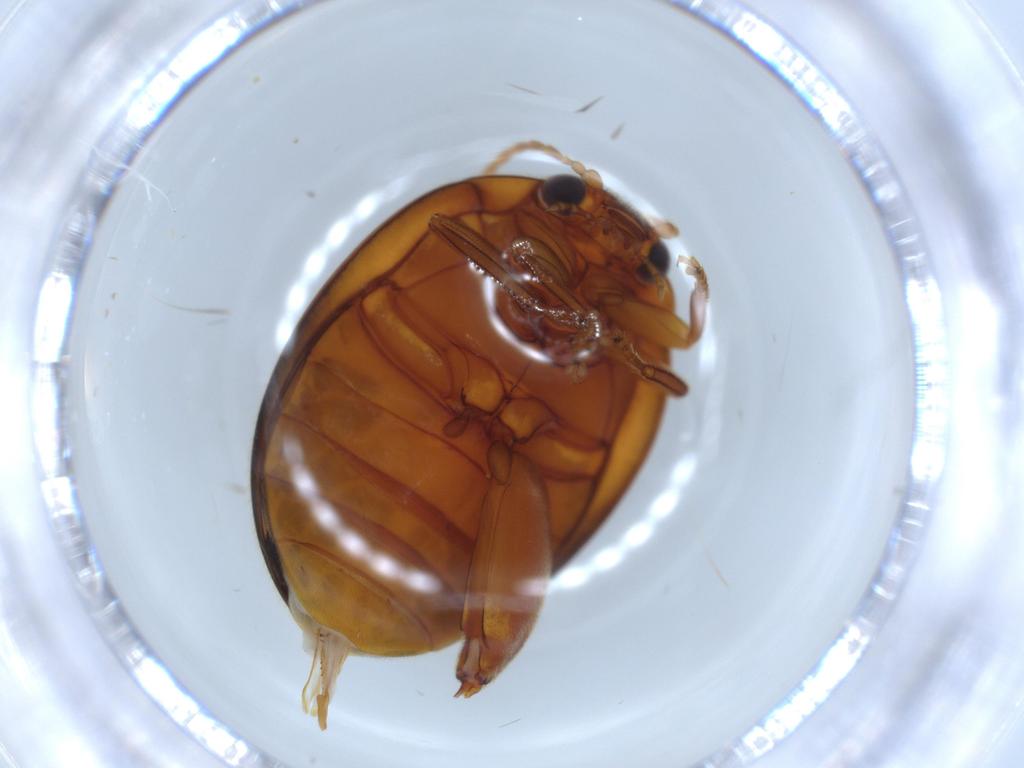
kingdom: Animalia
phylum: Arthropoda
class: Insecta
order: Coleoptera
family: Scirtidae
